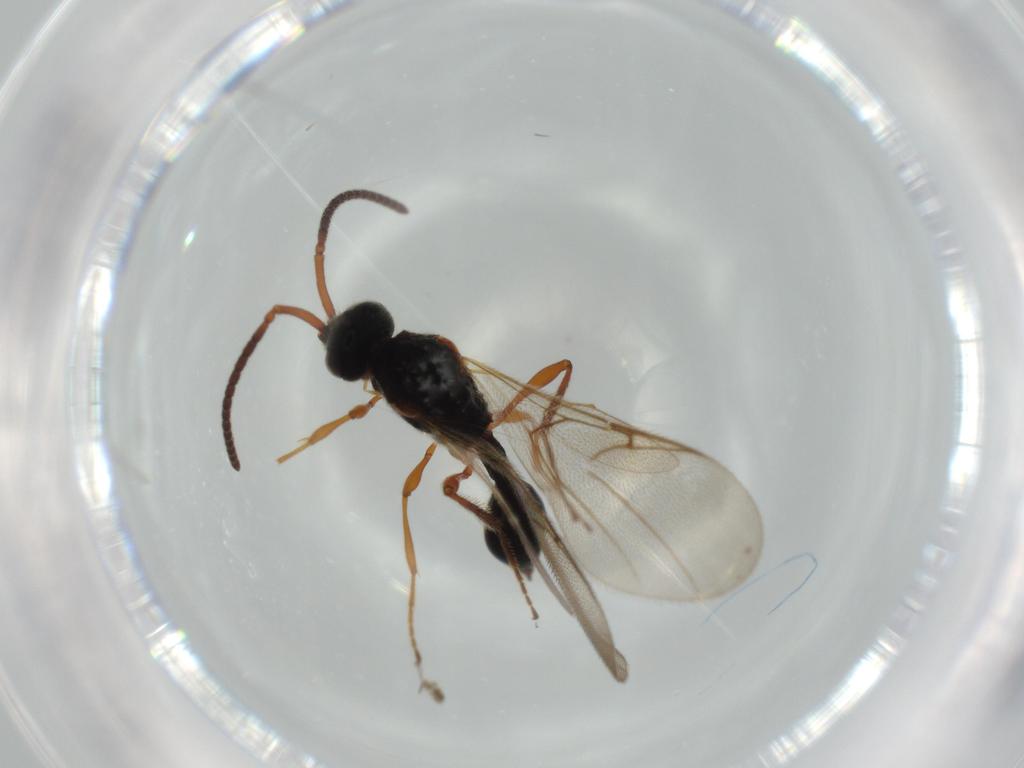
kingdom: Animalia
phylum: Arthropoda
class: Insecta
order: Hymenoptera
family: Ichneumonidae
